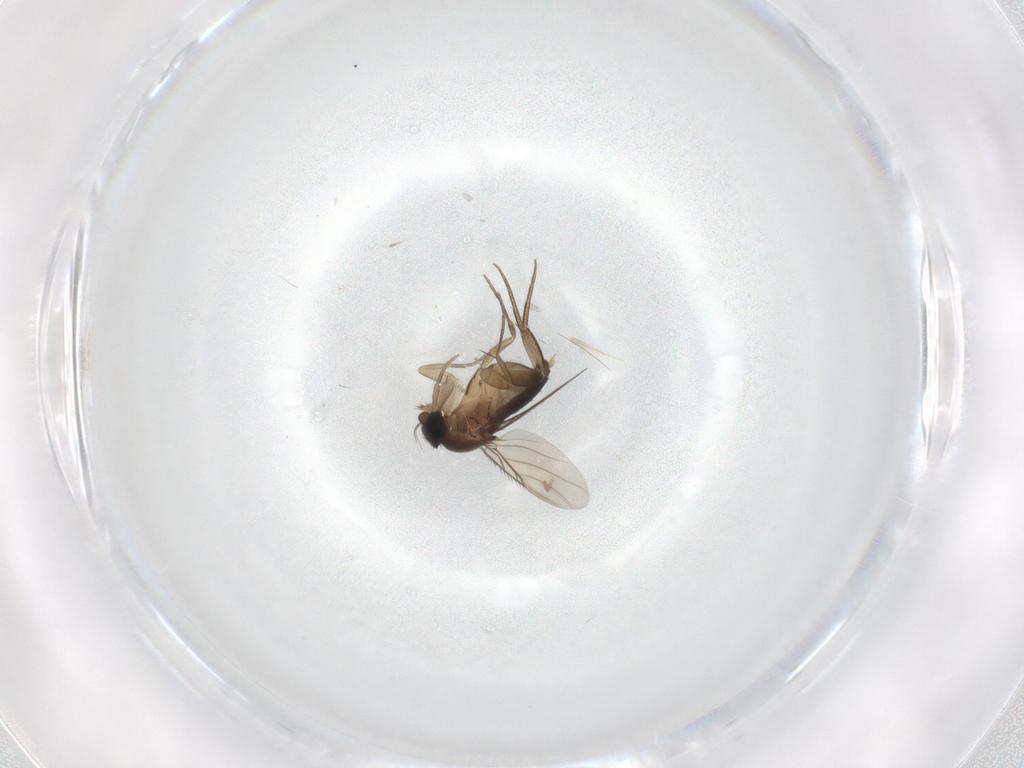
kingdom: Animalia
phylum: Arthropoda
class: Insecta
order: Diptera
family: Phoridae
